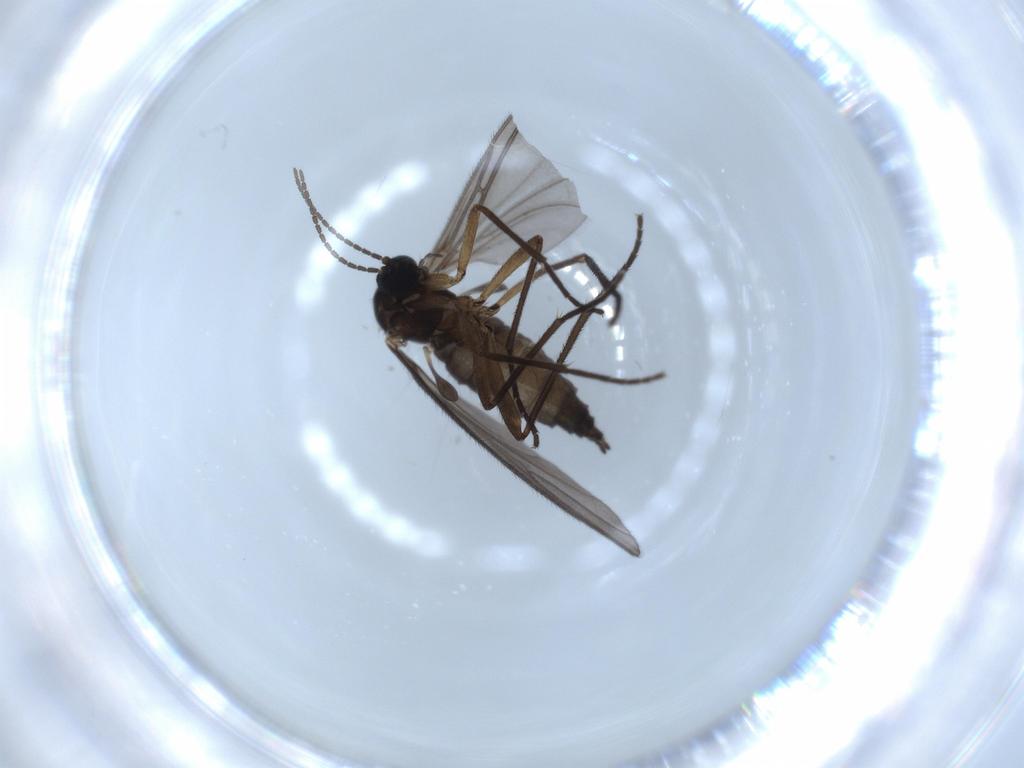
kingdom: Animalia
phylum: Arthropoda
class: Insecta
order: Diptera
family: Sciaridae
